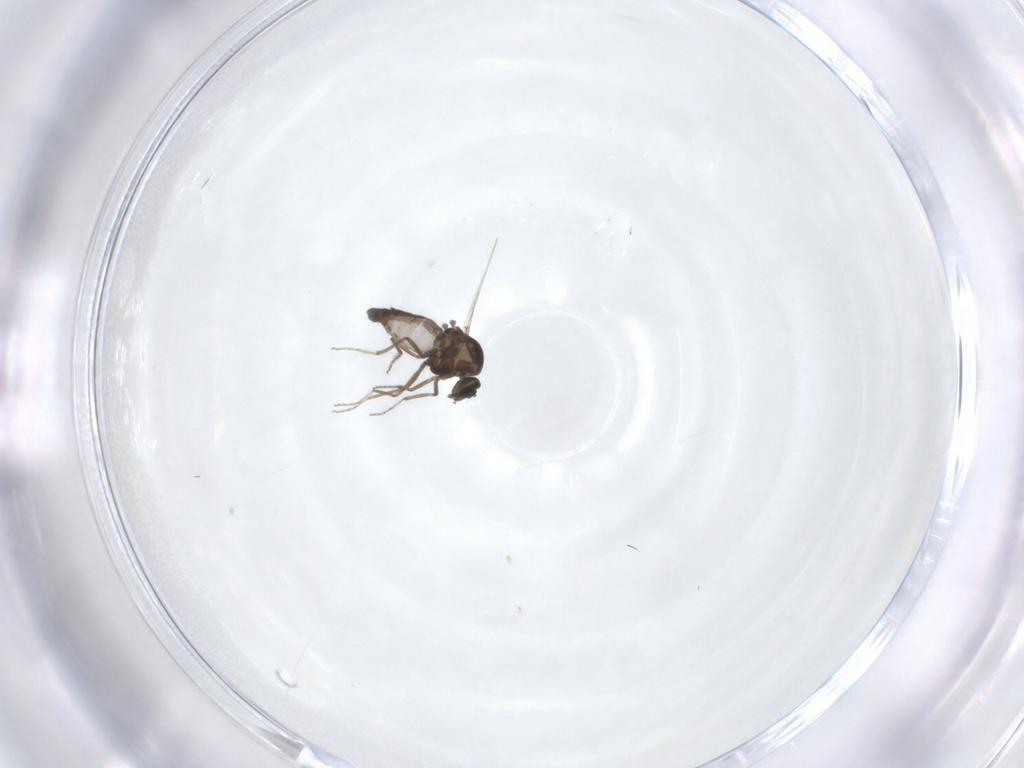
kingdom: Animalia
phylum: Arthropoda
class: Insecta
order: Diptera
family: Ceratopogonidae
